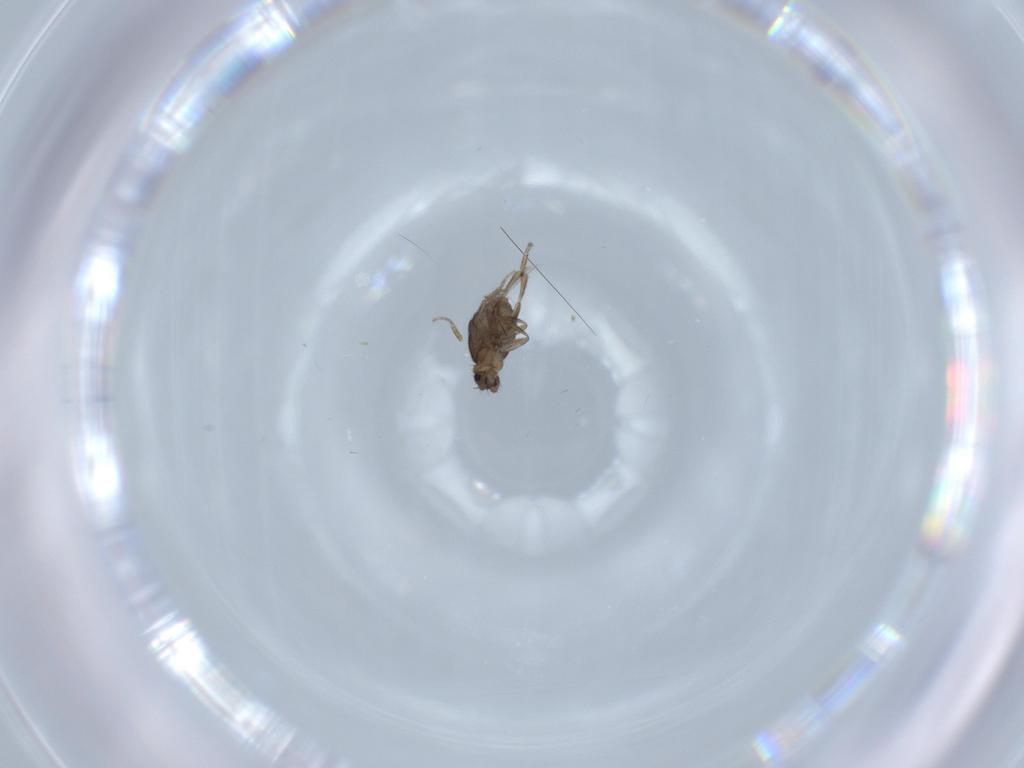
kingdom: Animalia
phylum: Arthropoda
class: Insecta
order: Diptera
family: Phoridae
